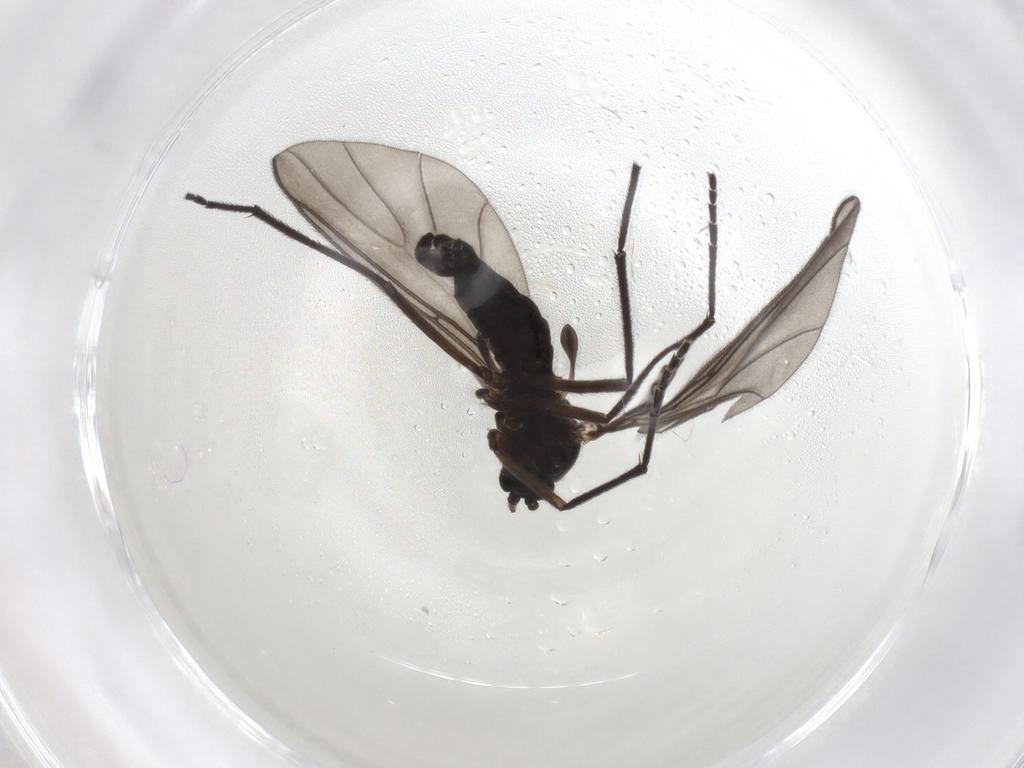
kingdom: Animalia
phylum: Arthropoda
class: Insecta
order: Diptera
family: Sciaridae
